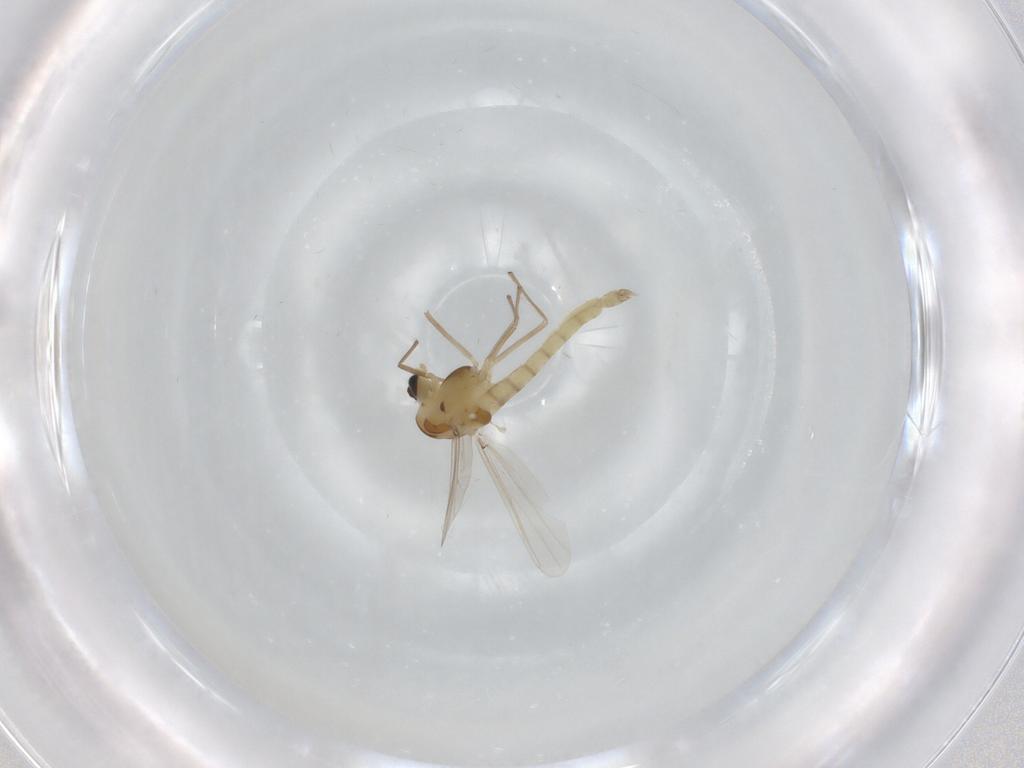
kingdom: Animalia
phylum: Arthropoda
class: Insecta
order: Diptera
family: Chironomidae
